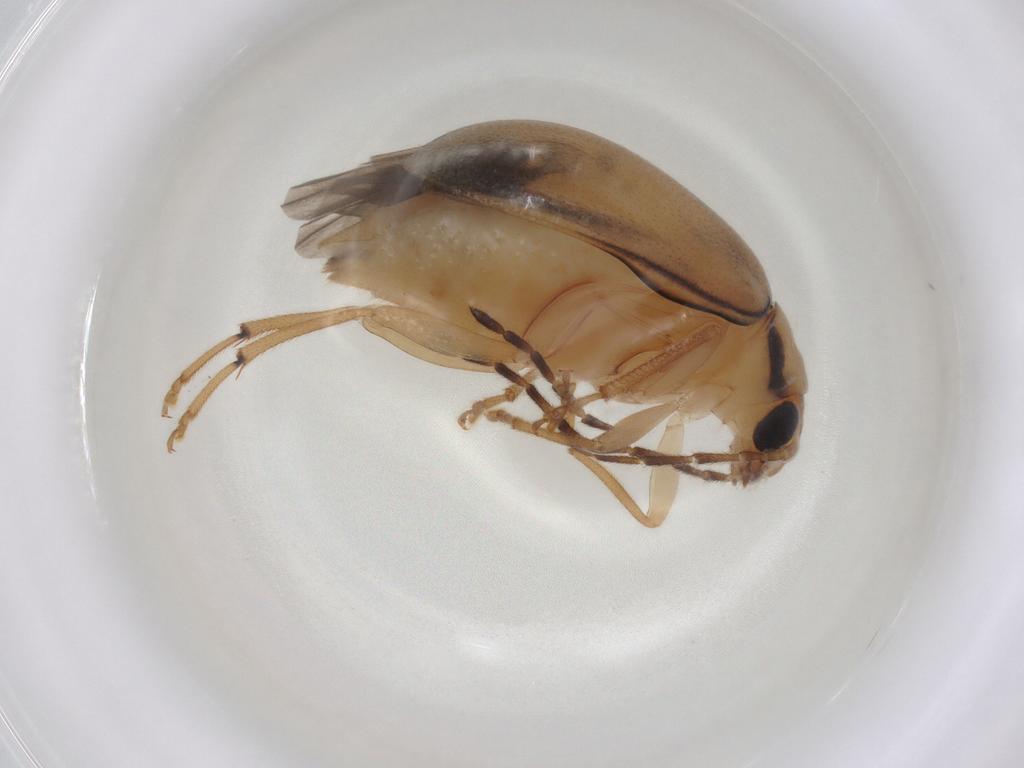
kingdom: Animalia
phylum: Arthropoda
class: Insecta
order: Coleoptera
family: Chrysomelidae
